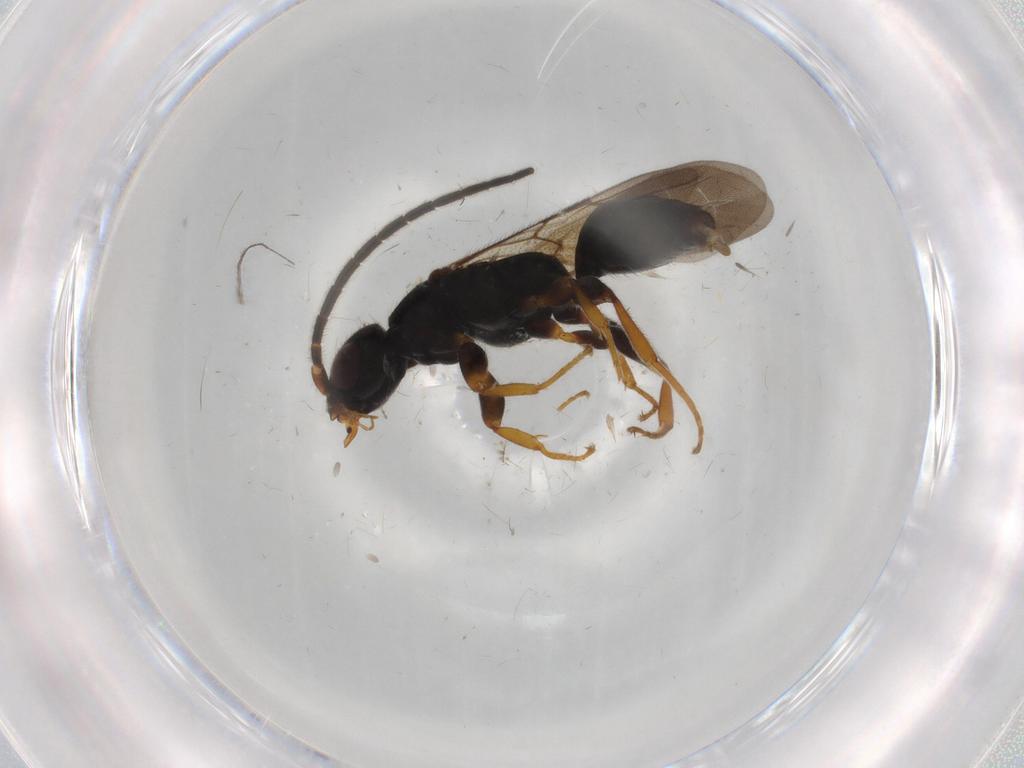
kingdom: Animalia
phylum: Arthropoda
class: Insecta
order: Hymenoptera
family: Bethylidae
